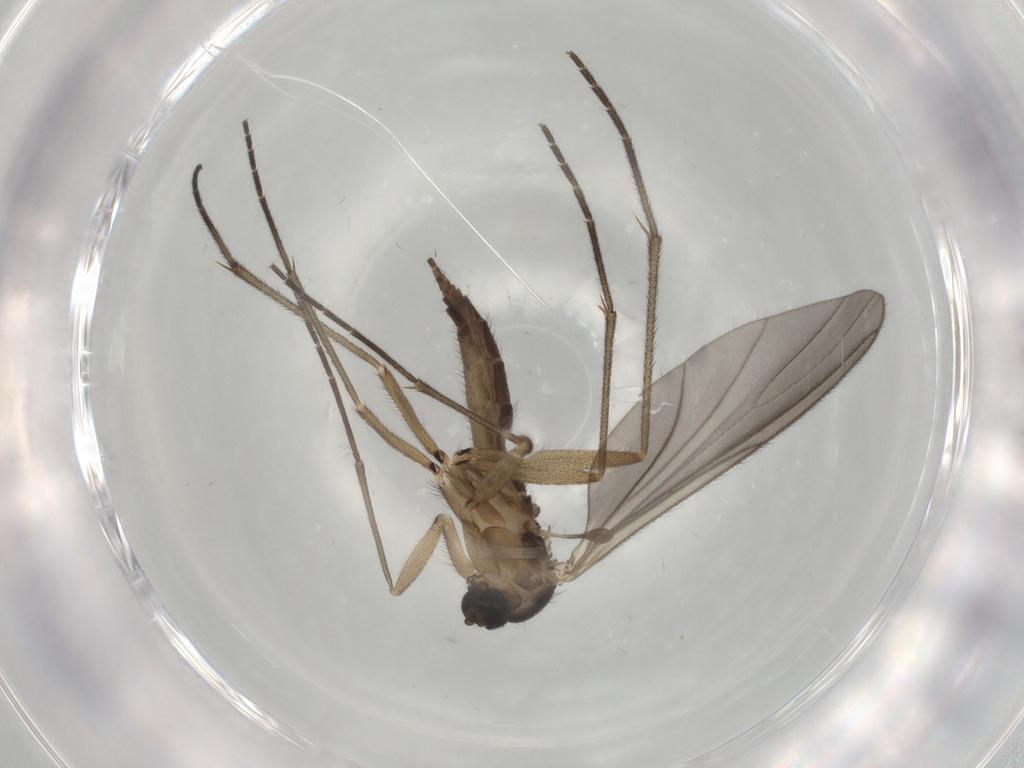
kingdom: Animalia
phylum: Arthropoda
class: Insecta
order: Diptera
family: Sciaridae
